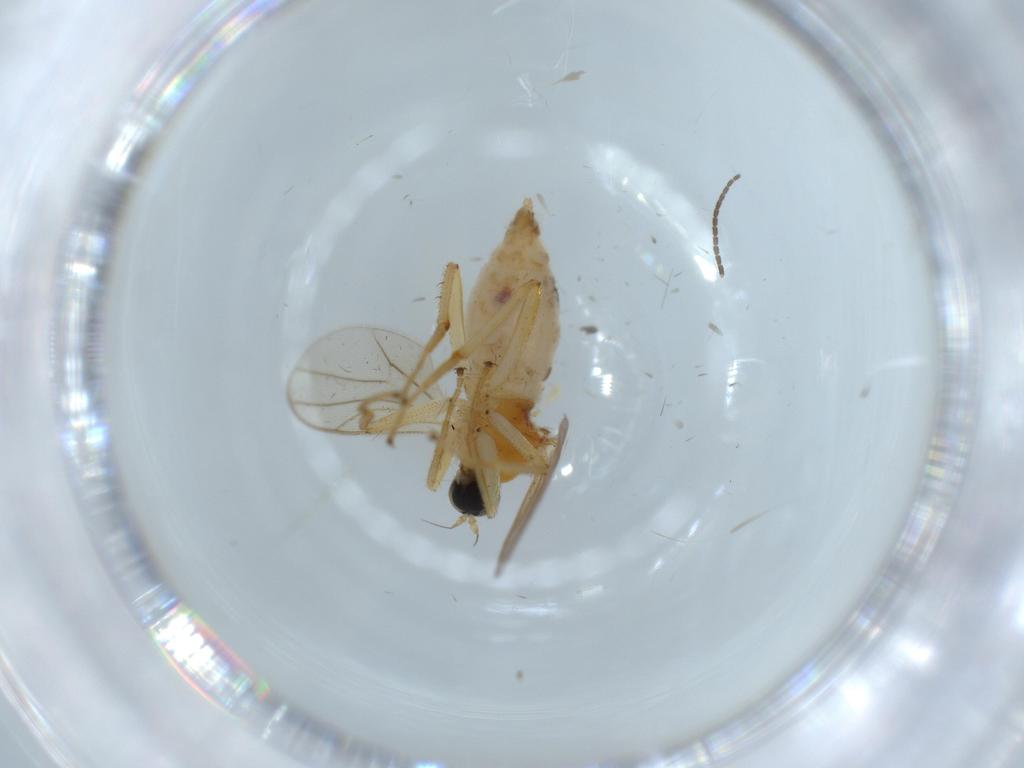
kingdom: Animalia
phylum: Arthropoda
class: Insecta
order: Diptera
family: Hybotidae
